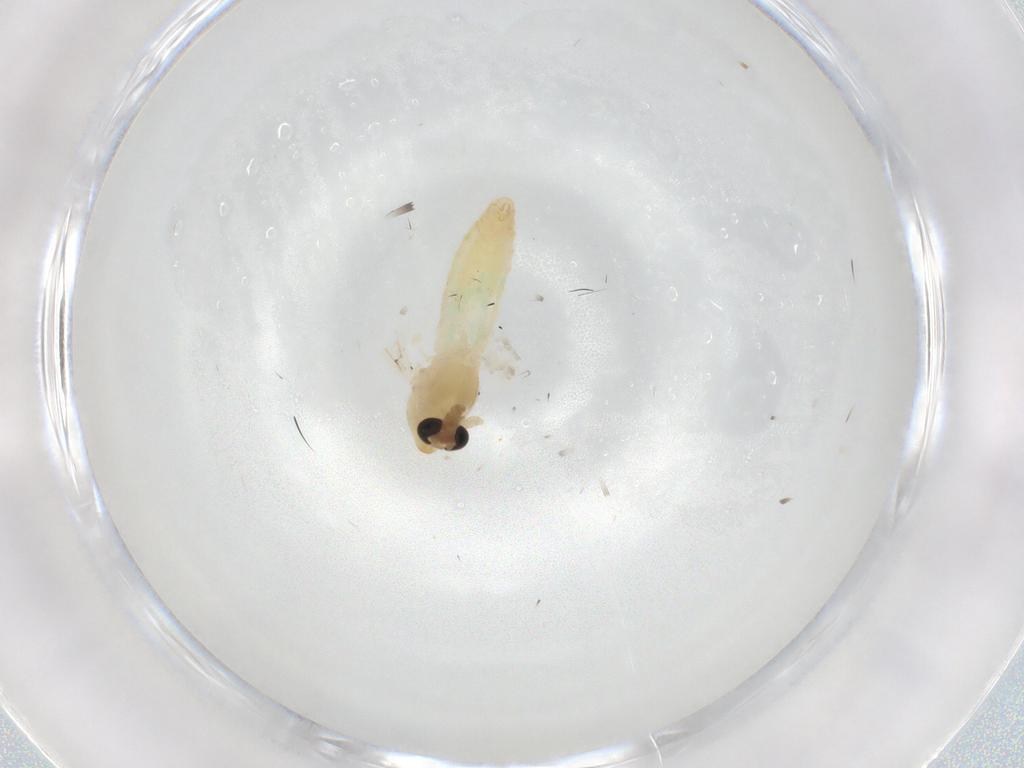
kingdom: Animalia
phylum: Arthropoda
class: Insecta
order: Diptera
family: Chironomidae
